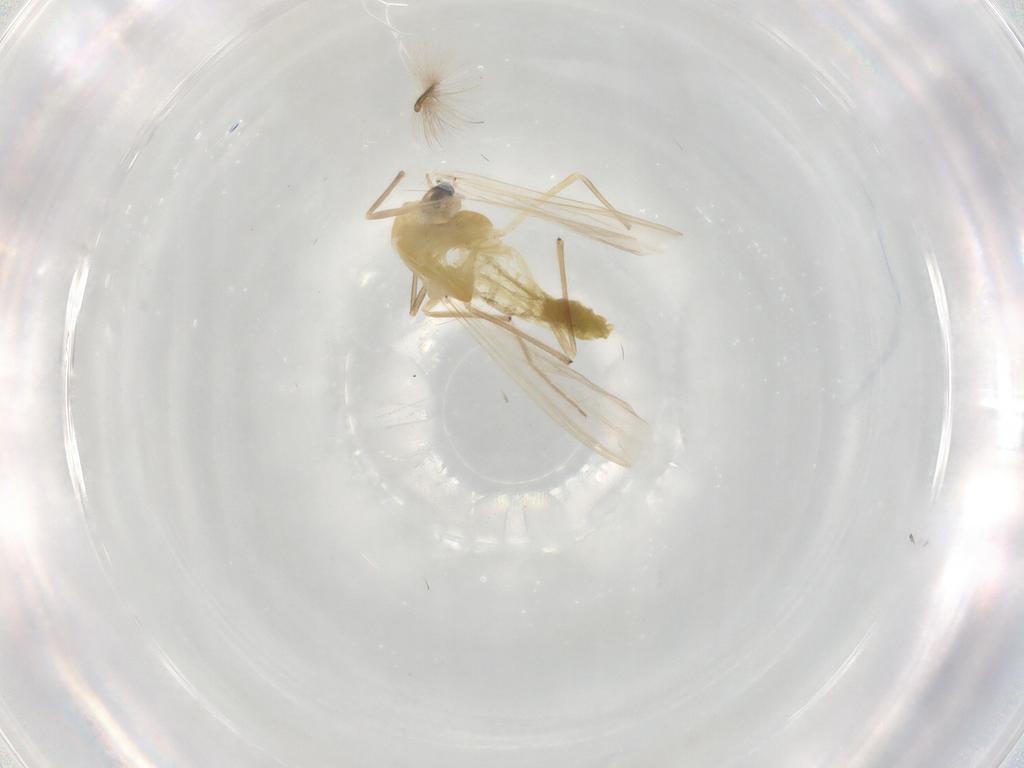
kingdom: Animalia
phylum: Arthropoda
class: Insecta
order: Diptera
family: Chironomidae
